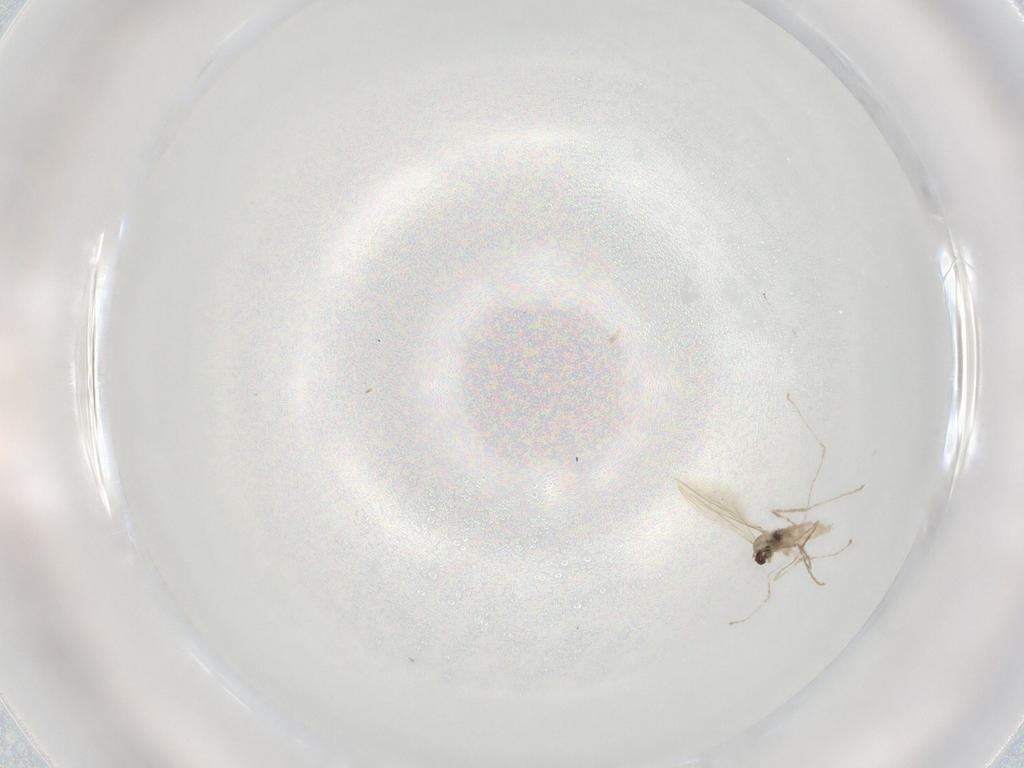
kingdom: Animalia
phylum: Arthropoda
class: Insecta
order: Diptera
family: Cecidomyiidae
